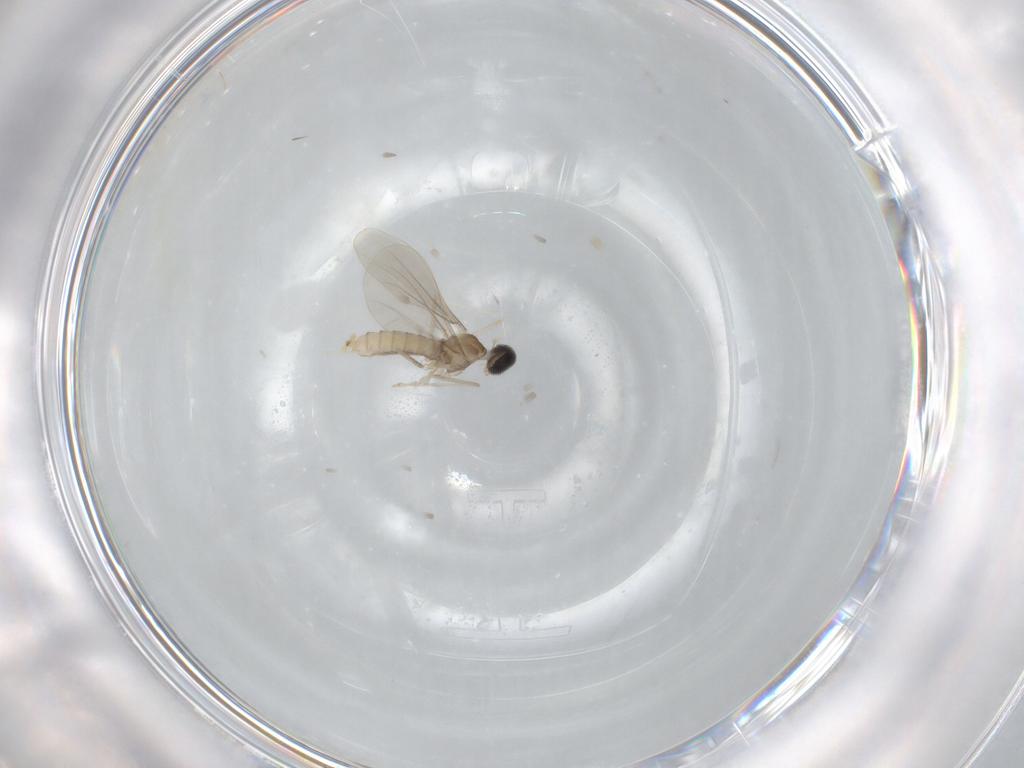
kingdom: Animalia
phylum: Arthropoda
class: Insecta
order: Diptera
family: Cecidomyiidae
